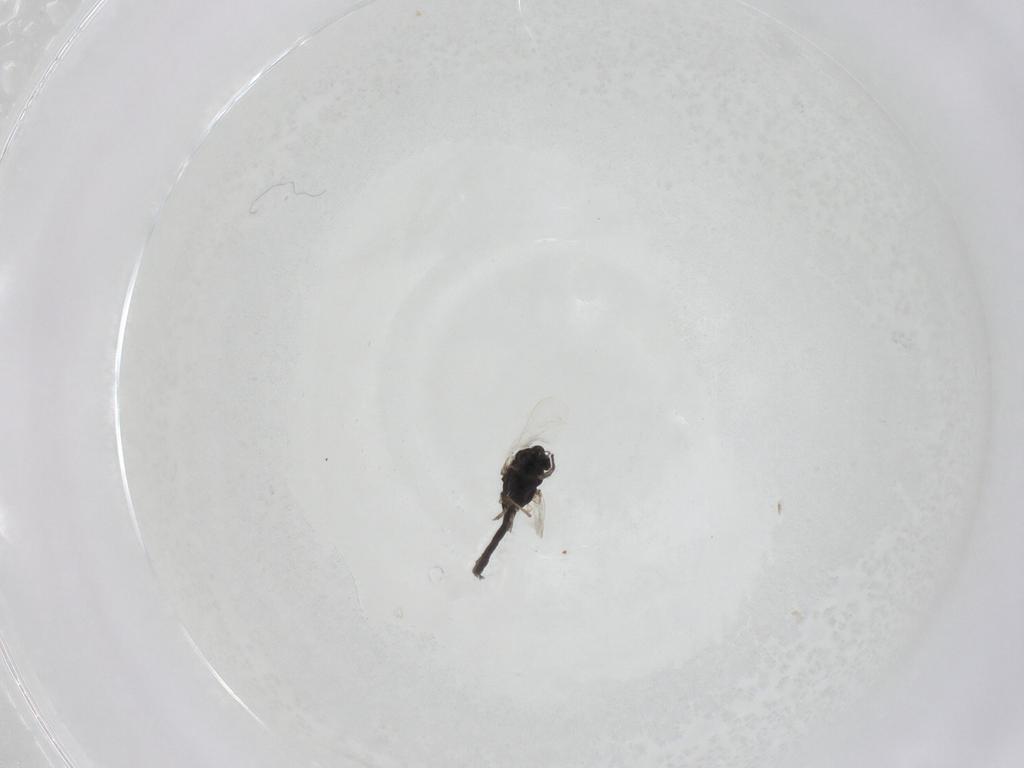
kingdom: Animalia
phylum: Arthropoda
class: Insecta
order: Diptera
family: Chironomidae
